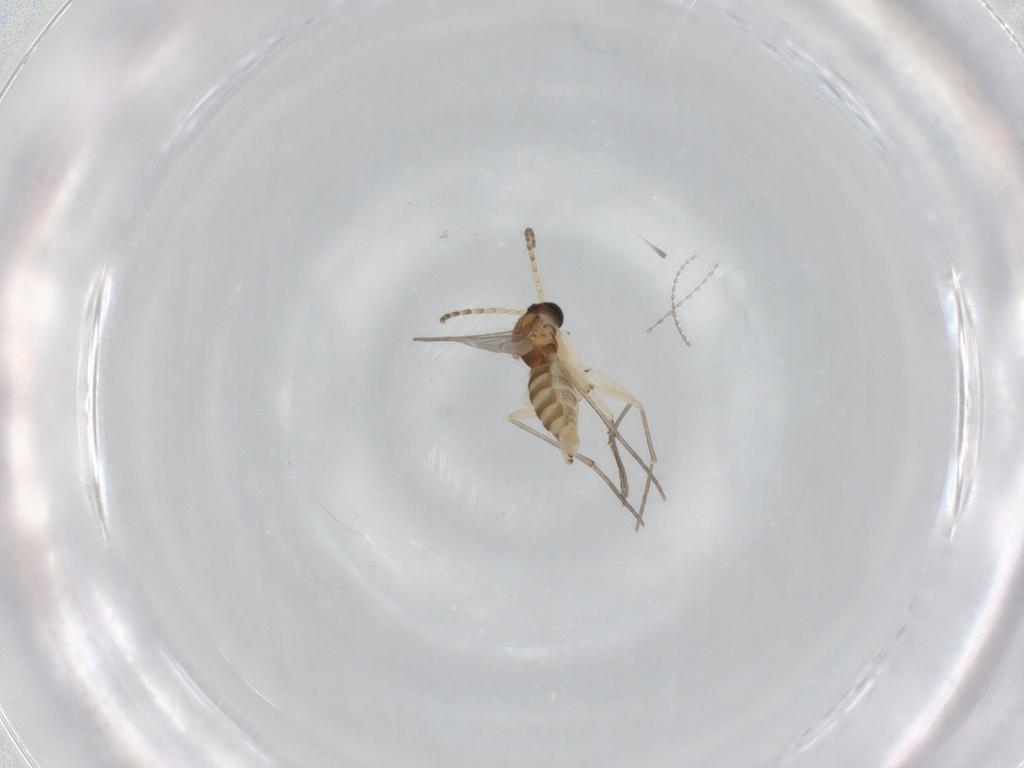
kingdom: Animalia
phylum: Arthropoda
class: Insecta
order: Diptera
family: Sciaridae
